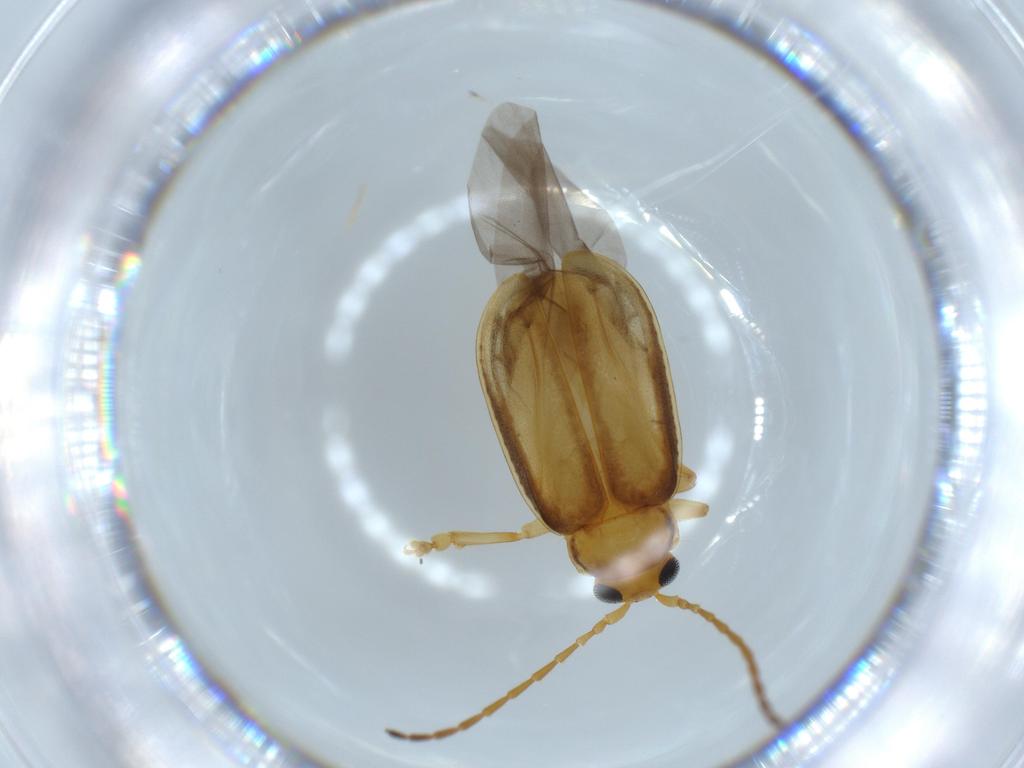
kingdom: Animalia
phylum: Arthropoda
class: Insecta
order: Coleoptera
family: Chrysomelidae
